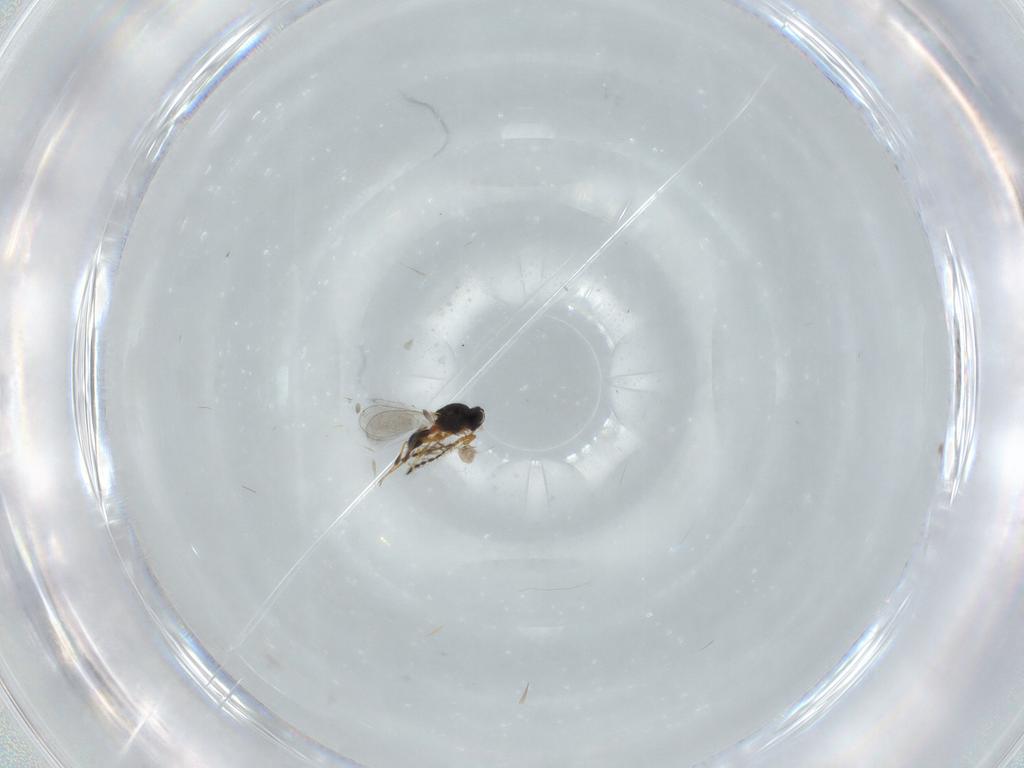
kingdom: Animalia
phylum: Arthropoda
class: Insecta
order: Hymenoptera
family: Platygastridae
